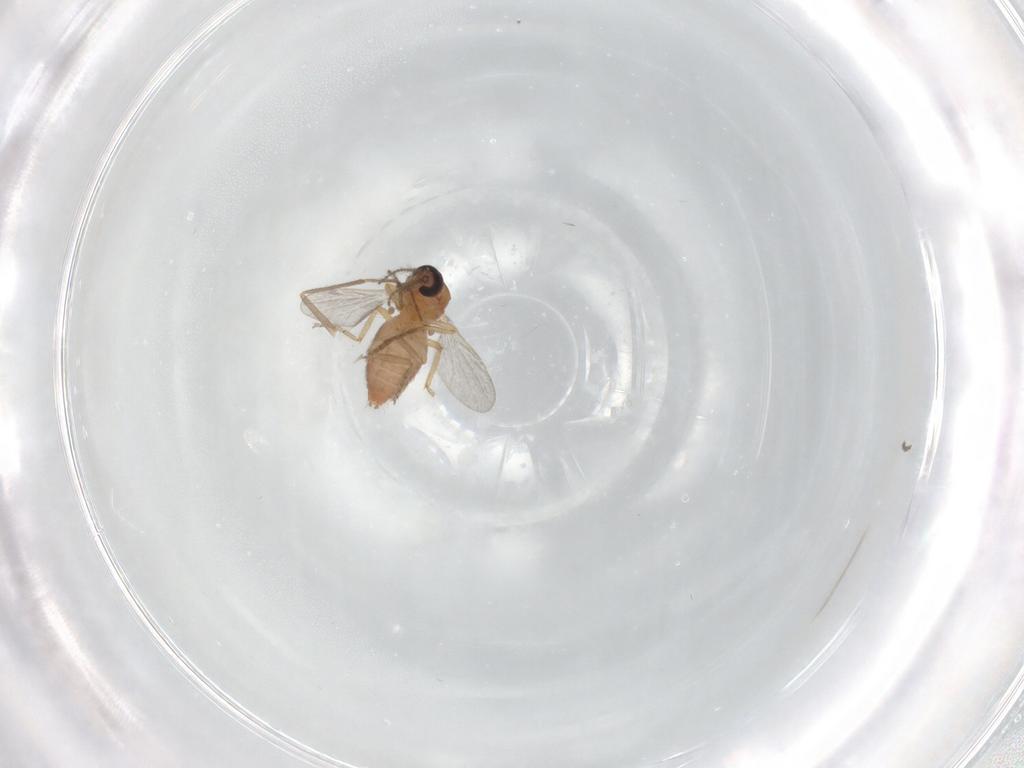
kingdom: Animalia
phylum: Arthropoda
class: Insecta
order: Diptera
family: Ceratopogonidae
